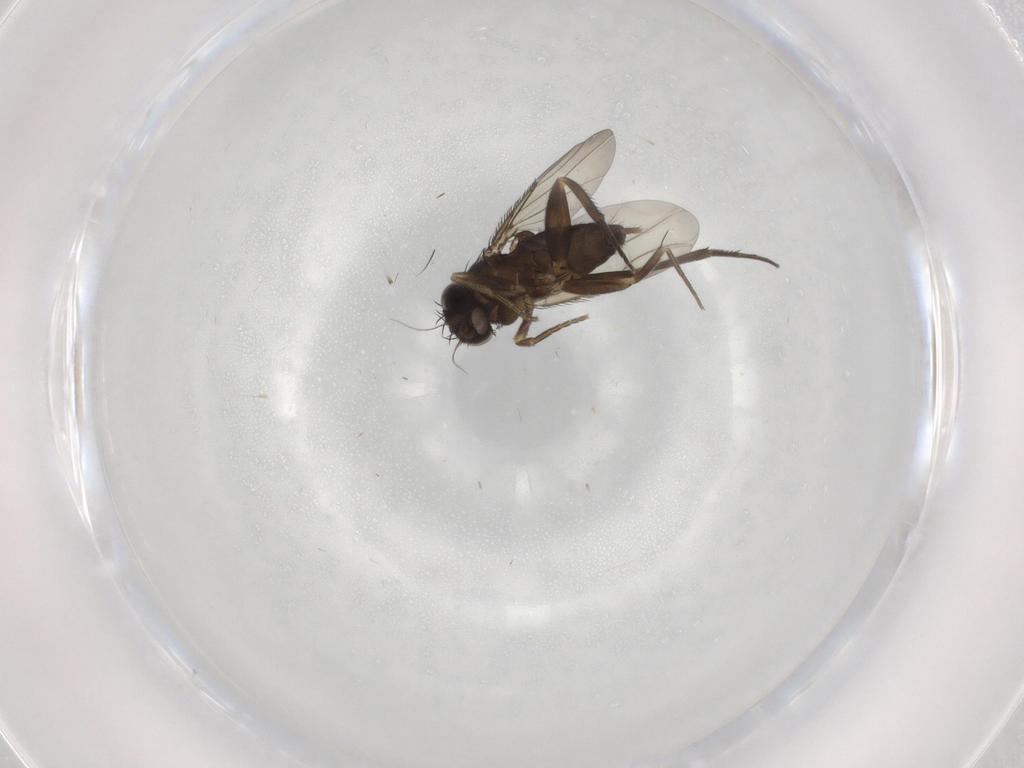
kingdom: Animalia
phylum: Arthropoda
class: Insecta
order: Diptera
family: Phoridae
